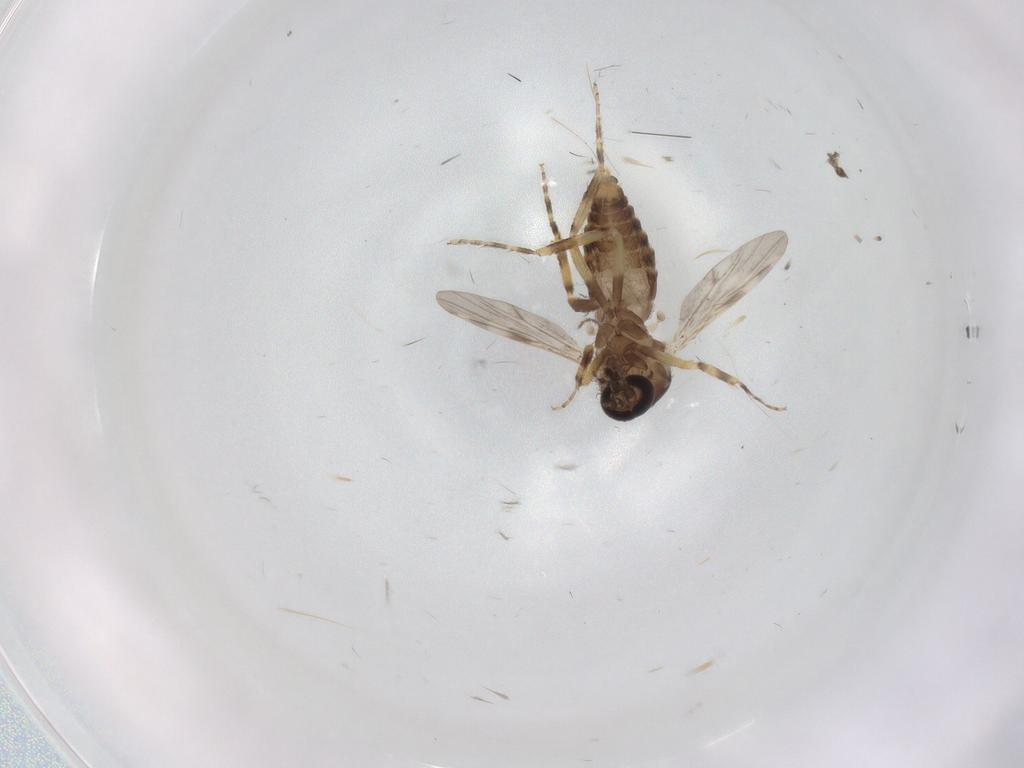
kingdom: Animalia
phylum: Arthropoda
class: Insecta
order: Diptera
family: Ceratopogonidae
